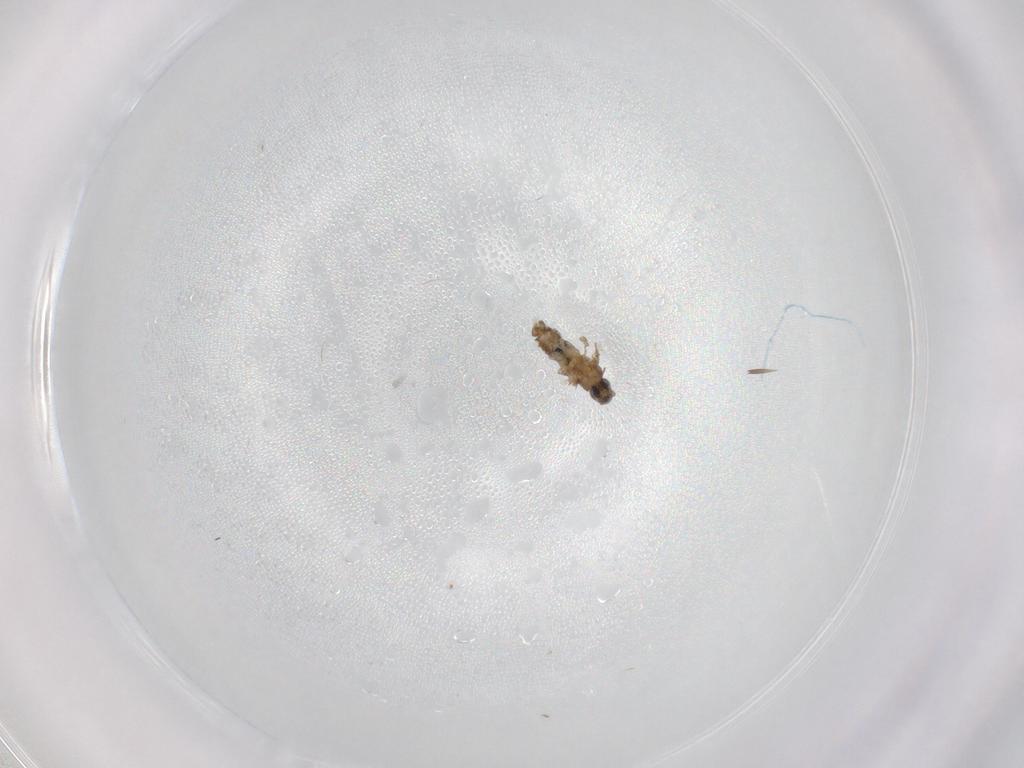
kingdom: Animalia
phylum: Arthropoda
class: Insecta
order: Diptera
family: Cecidomyiidae
